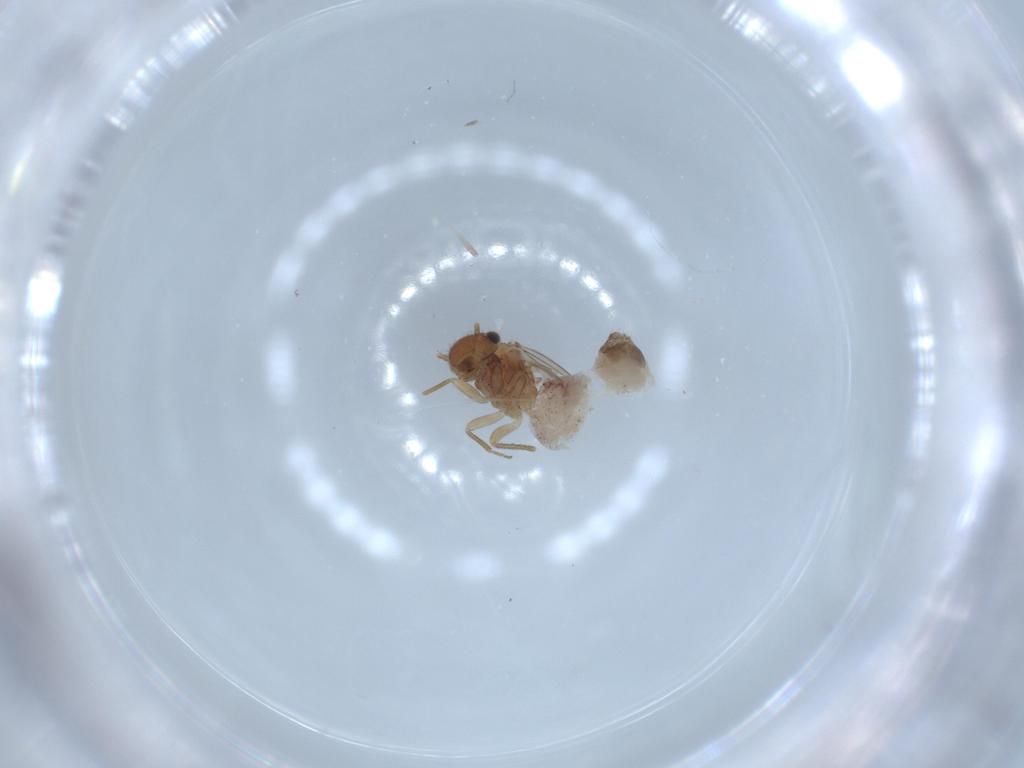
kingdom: Animalia
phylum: Arthropoda
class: Insecta
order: Psocodea
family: Ectopsocidae
